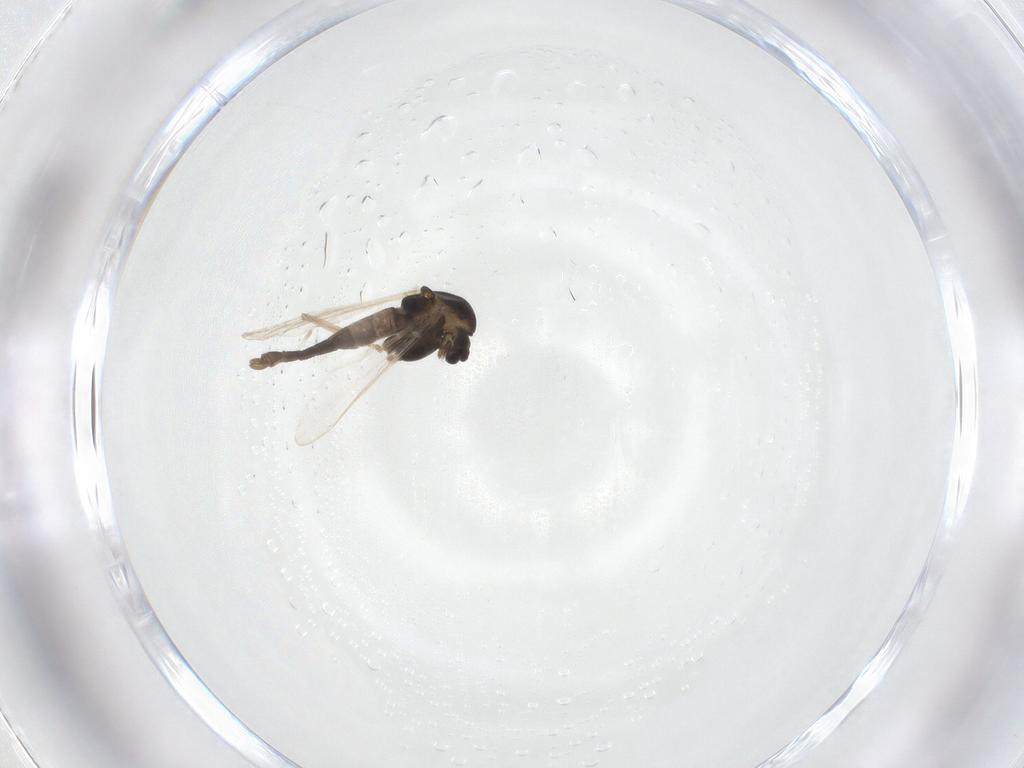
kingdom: Animalia
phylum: Arthropoda
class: Insecta
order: Diptera
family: Chironomidae
